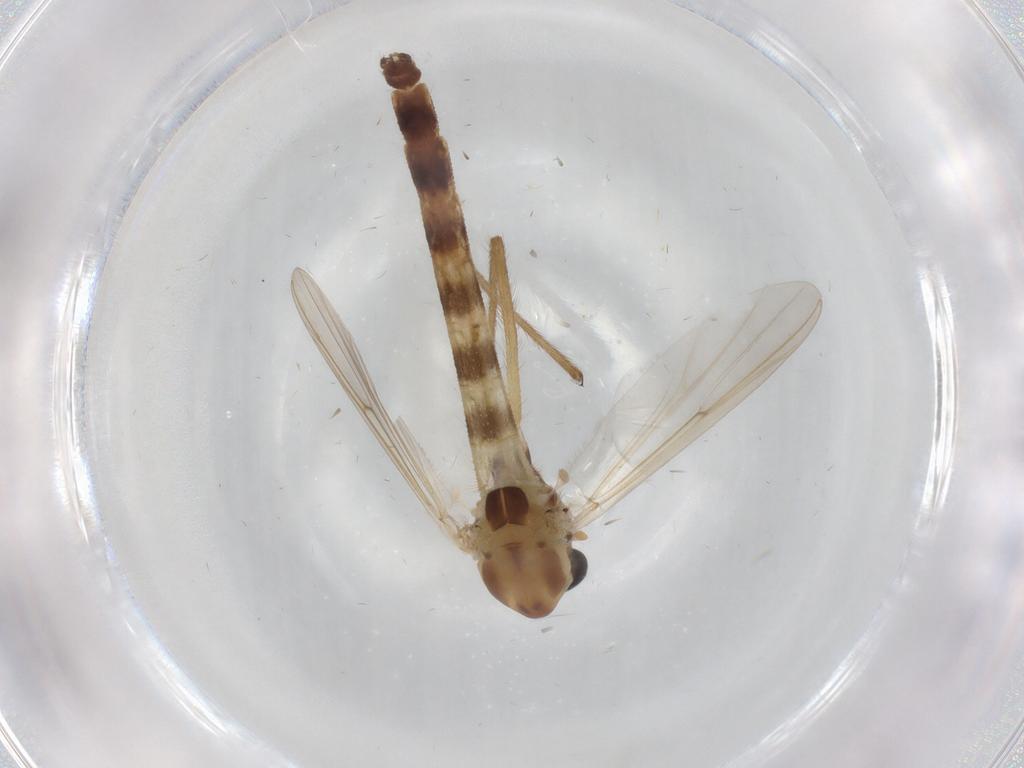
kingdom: Animalia
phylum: Arthropoda
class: Insecta
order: Diptera
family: Chironomidae
